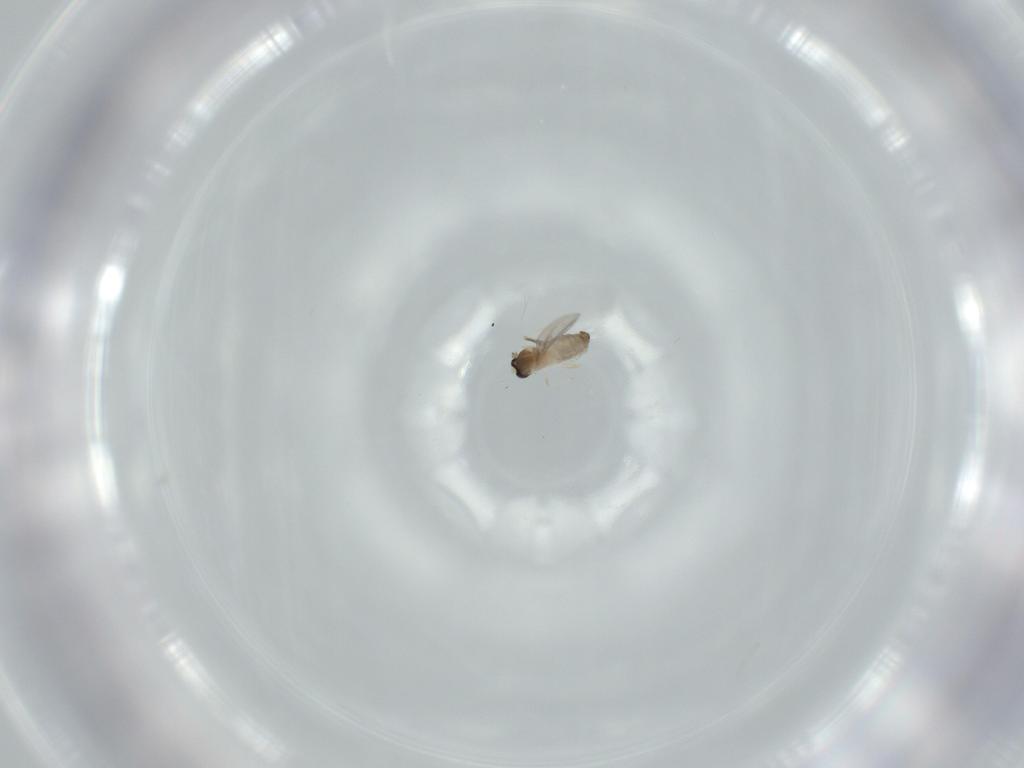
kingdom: Animalia
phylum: Arthropoda
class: Insecta
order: Diptera
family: Cecidomyiidae
